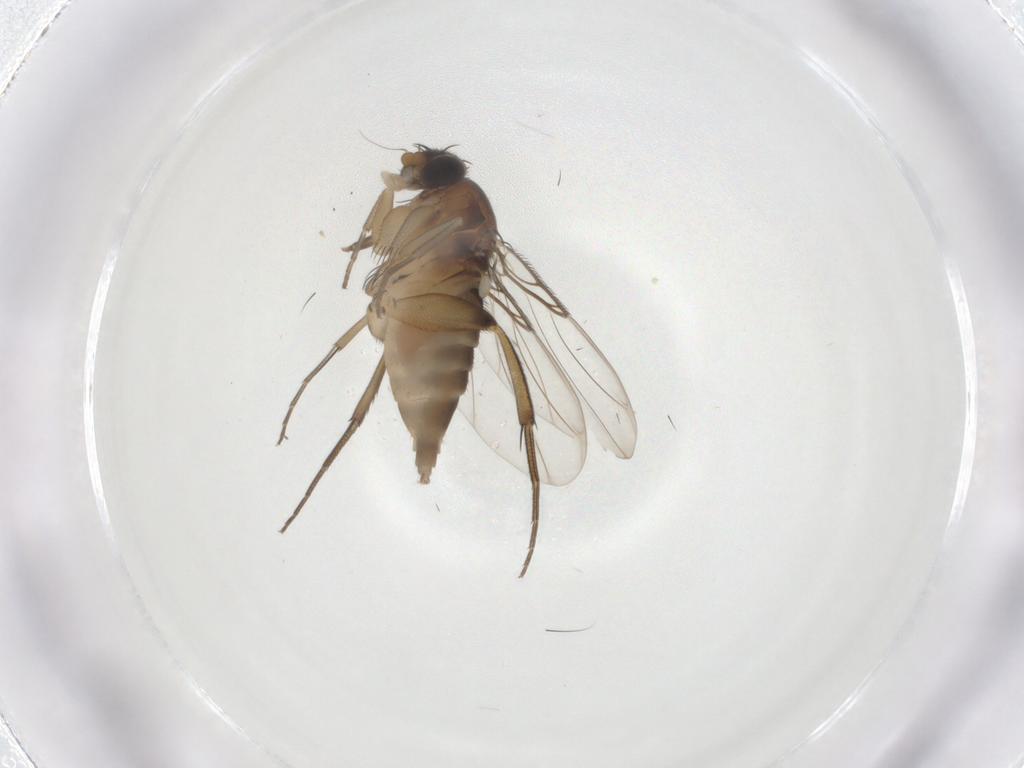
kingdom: Animalia
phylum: Arthropoda
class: Insecta
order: Diptera
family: Phoridae
